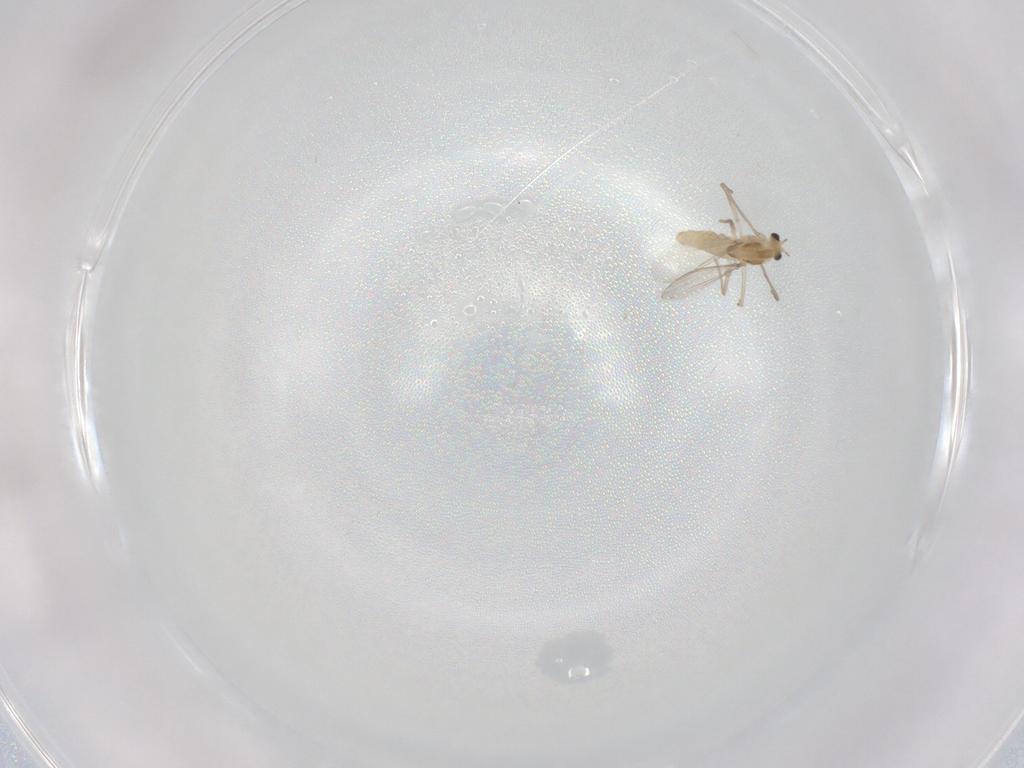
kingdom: Animalia
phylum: Arthropoda
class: Insecta
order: Diptera
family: Chironomidae
